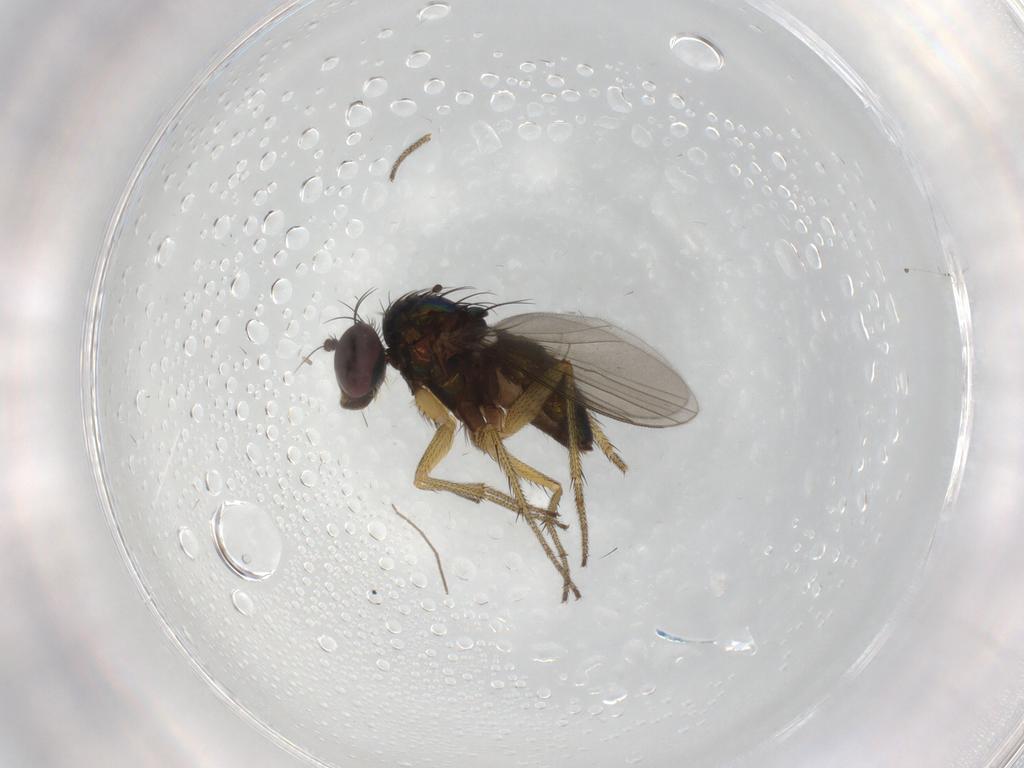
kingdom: Animalia
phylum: Arthropoda
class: Insecta
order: Diptera
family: Dolichopodidae
